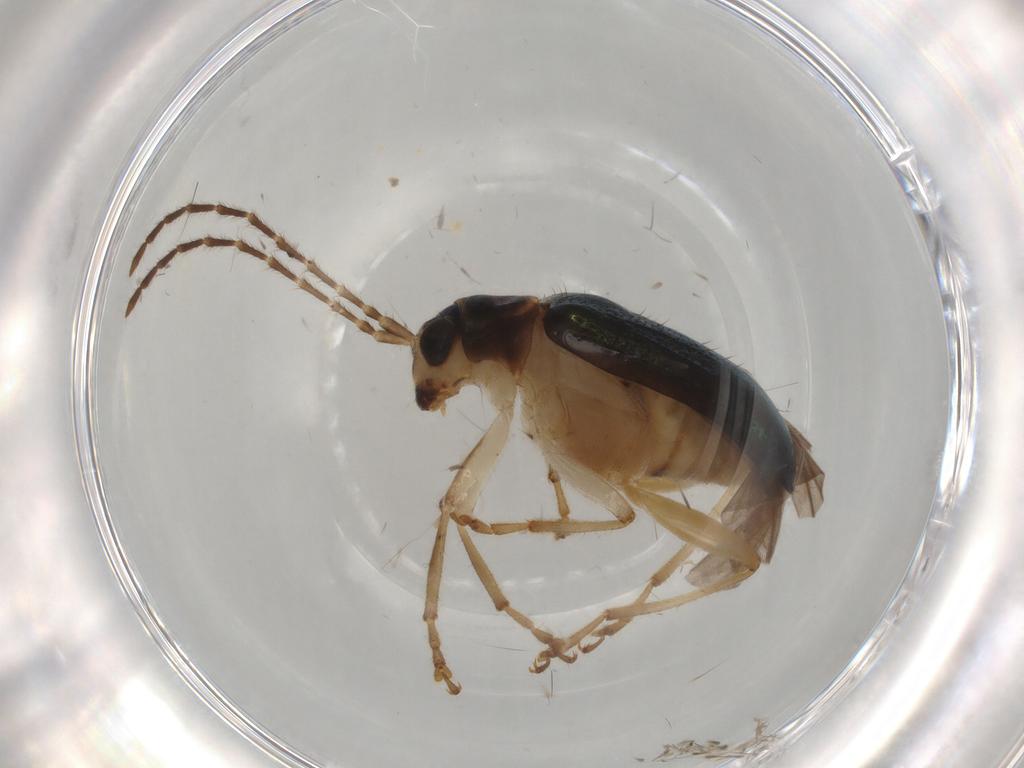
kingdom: Animalia
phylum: Arthropoda
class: Insecta
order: Coleoptera
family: Chrysomelidae
